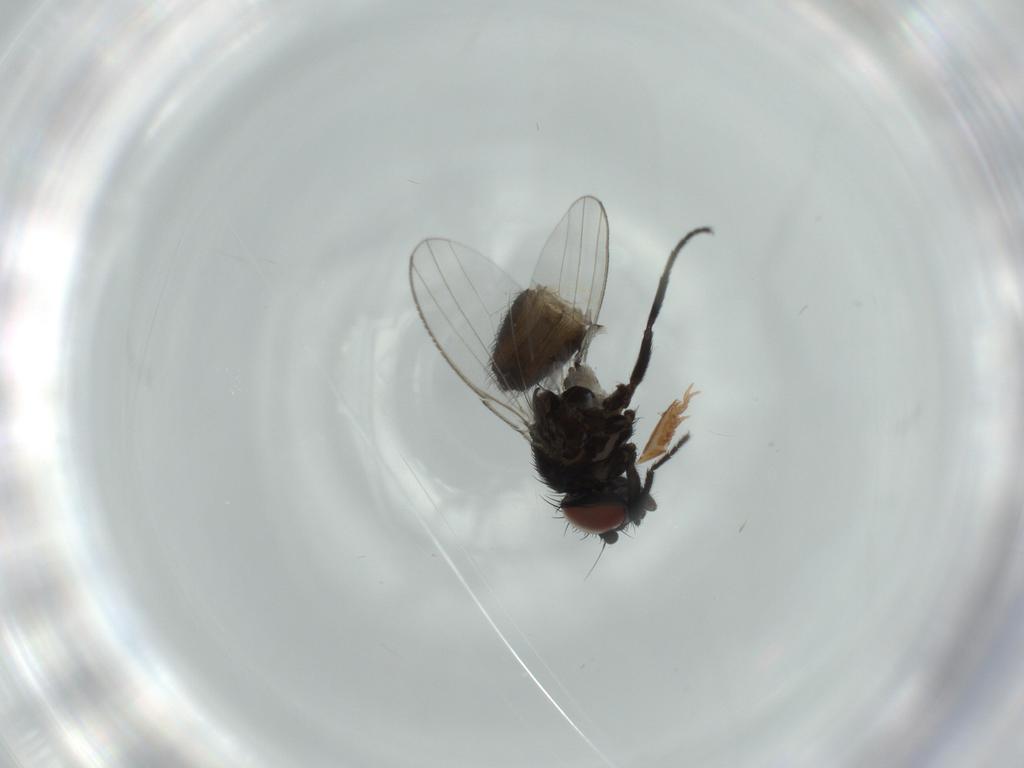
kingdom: Animalia
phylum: Arthropoda
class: Insecta
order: Diptera
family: Milichiidae
